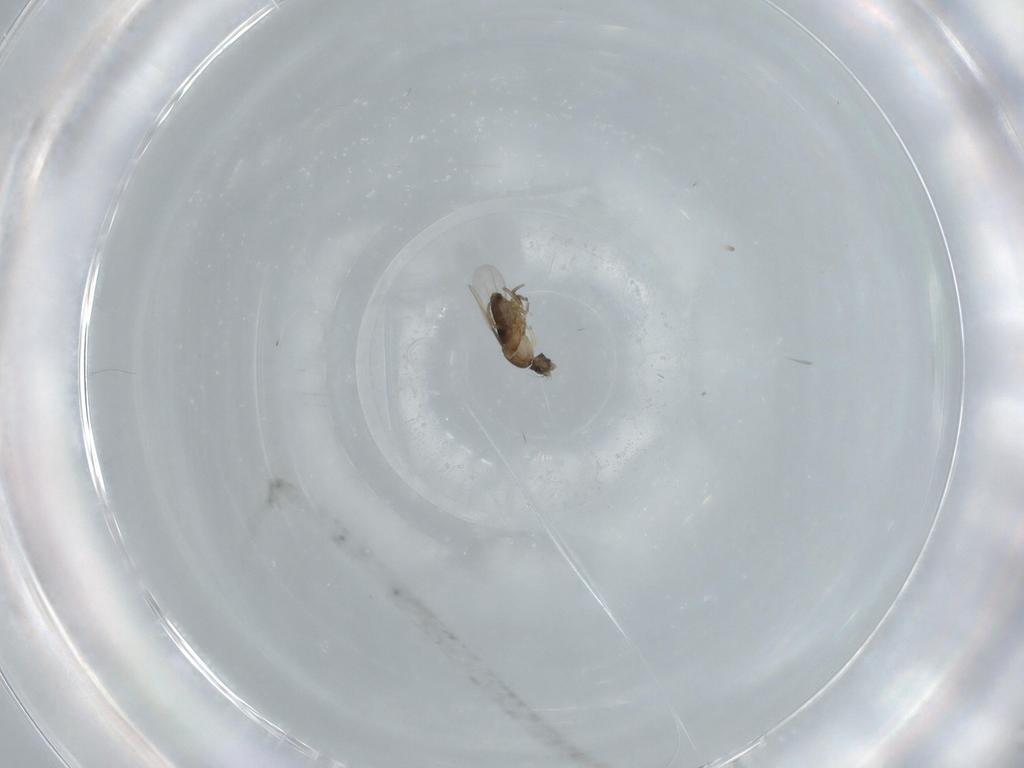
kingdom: Animalia
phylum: Arthropoda
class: Insecta
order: Diptera
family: Phoridae
